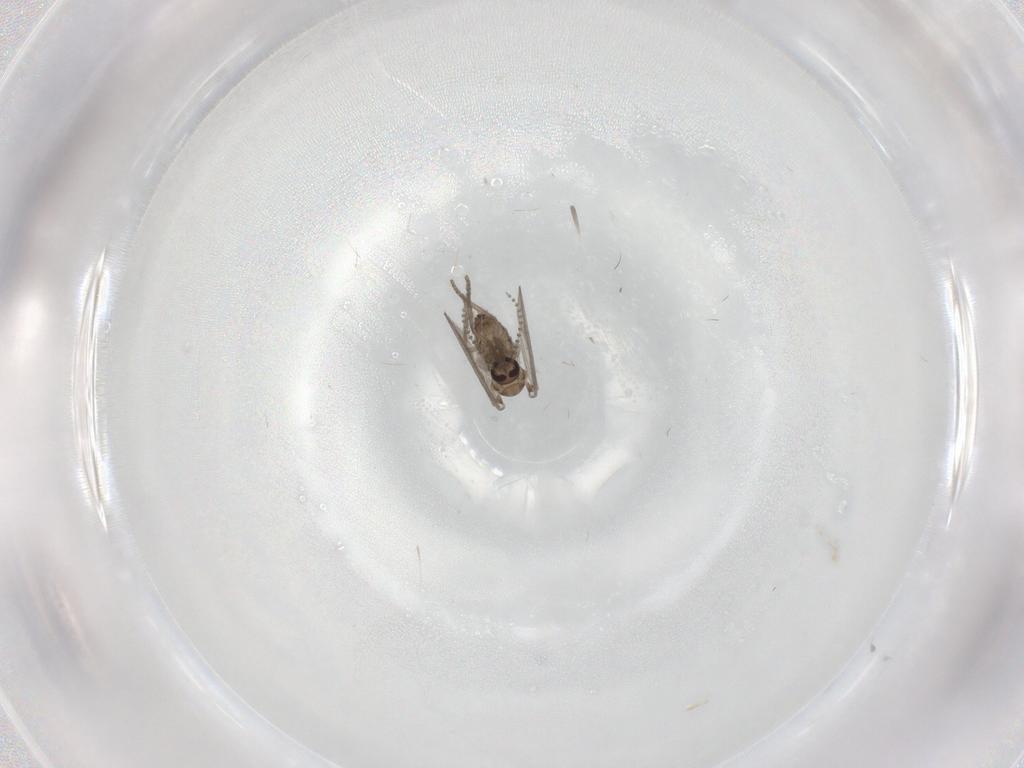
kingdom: Animalia
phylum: Arthropoda
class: Insecta
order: Diptera
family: Psychodidae
